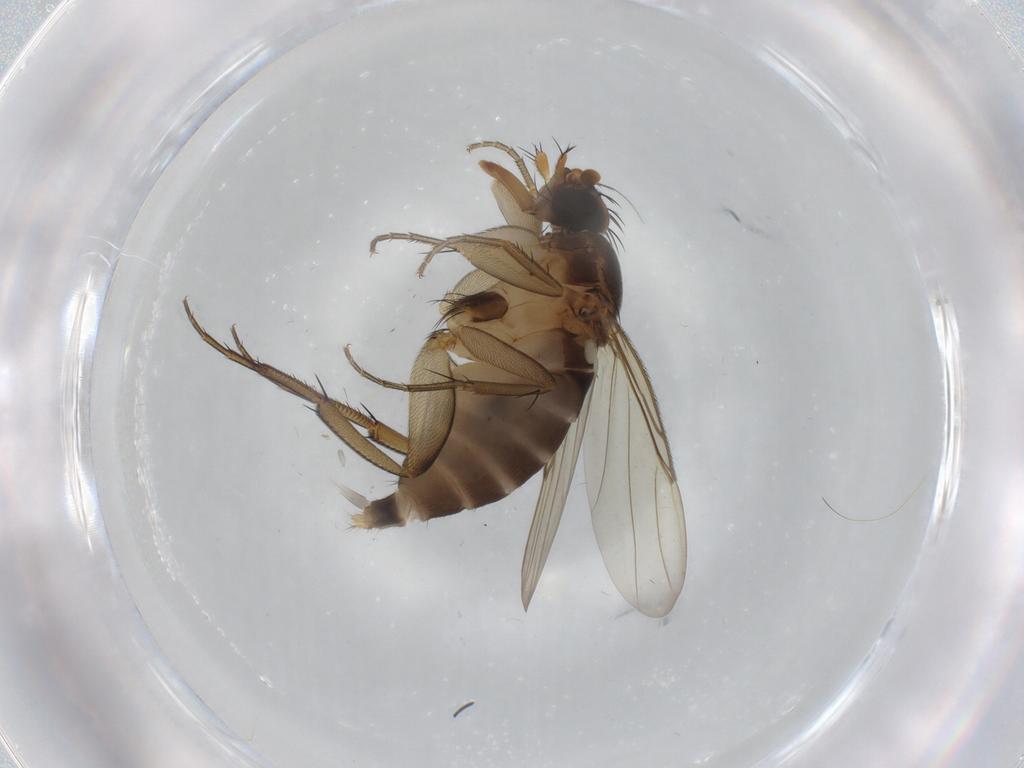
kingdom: Animalia
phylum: Arthropoda
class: Insecta
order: Diptera
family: Phoridae
